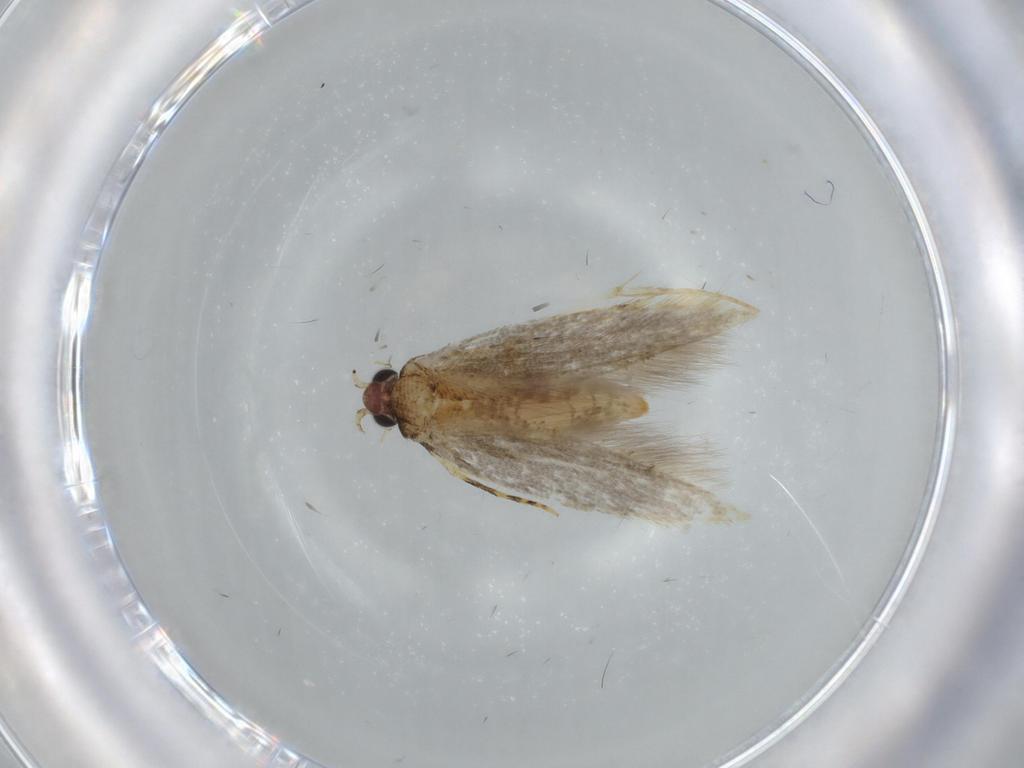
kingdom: Animalia
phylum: Arthropoda
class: Insecta
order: Lepidoptera
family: Tineidae
